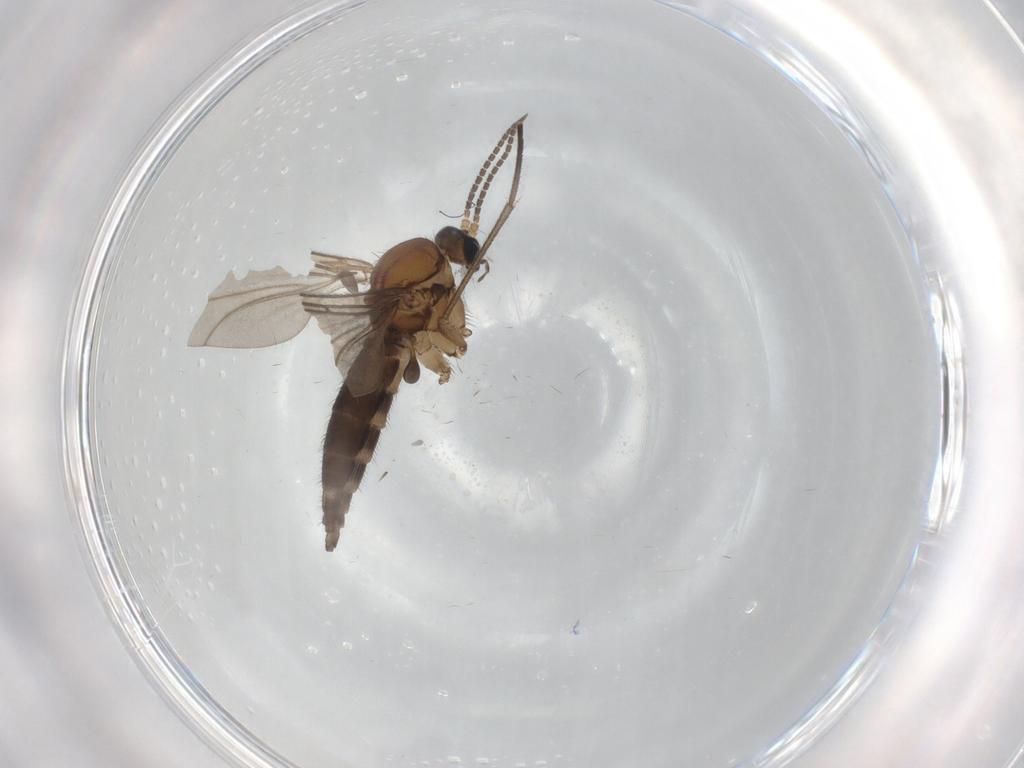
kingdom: Animalia
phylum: Arthropoda
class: Insecta
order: Diptera
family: Sciaridae
